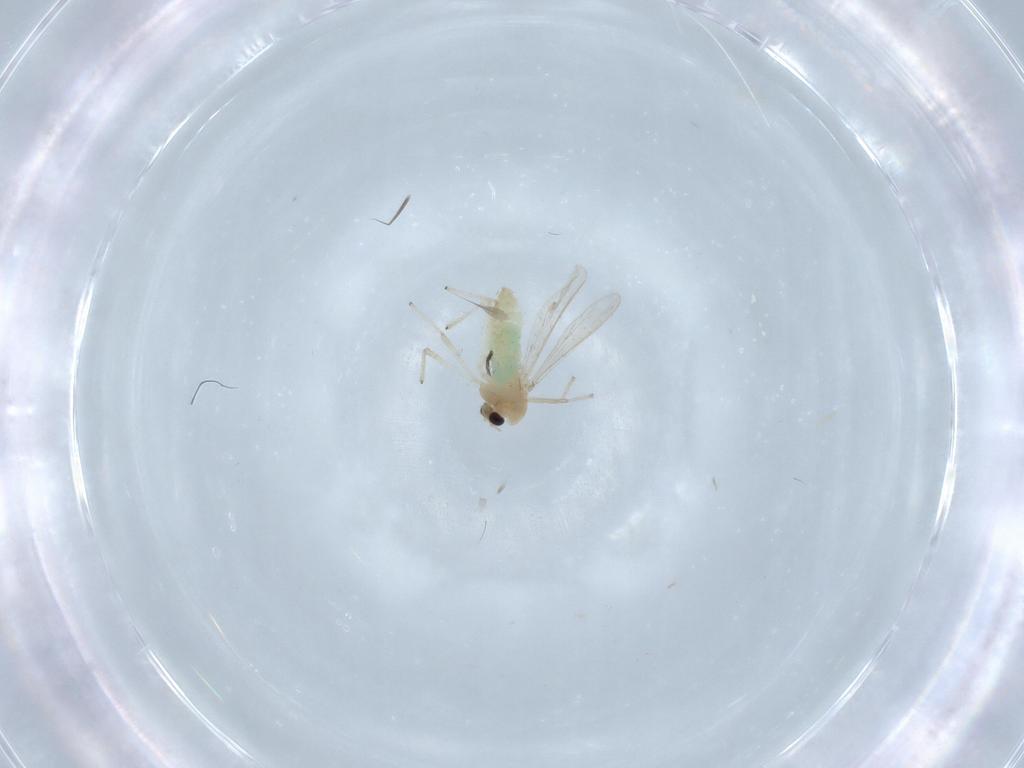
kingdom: Animalia
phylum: Arthropoda
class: Insecta
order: Diptera
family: Chironomidae
